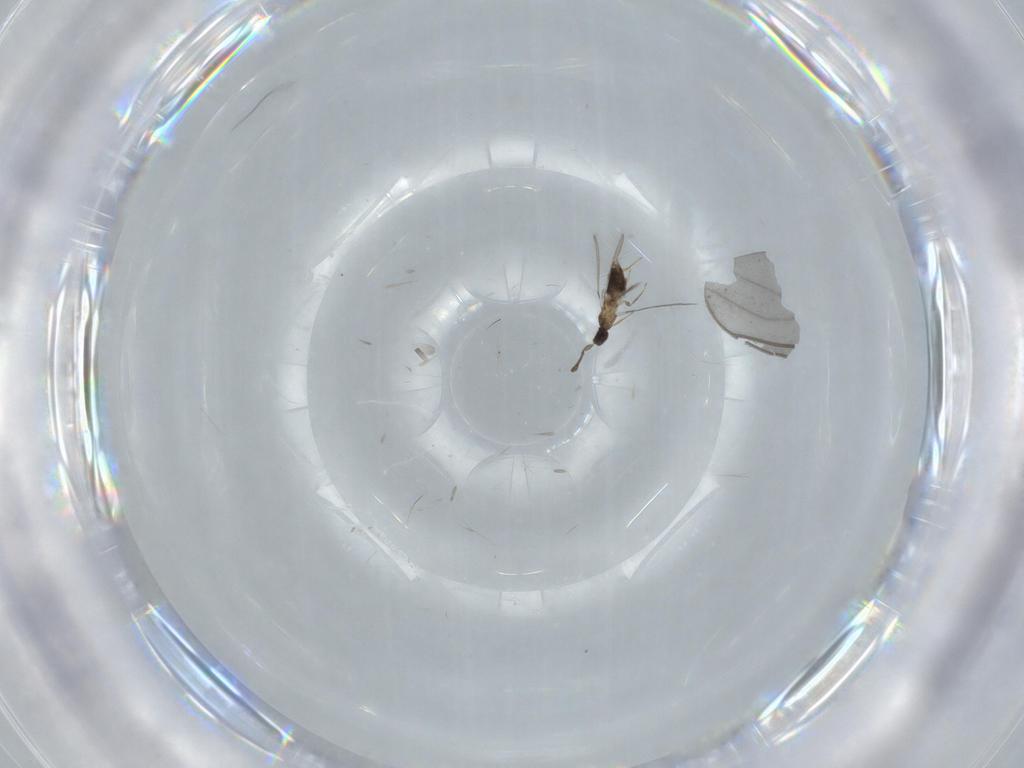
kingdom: Animalia
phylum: Arthropoda
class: Insecta
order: Hymenoptera
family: Mymaridae
